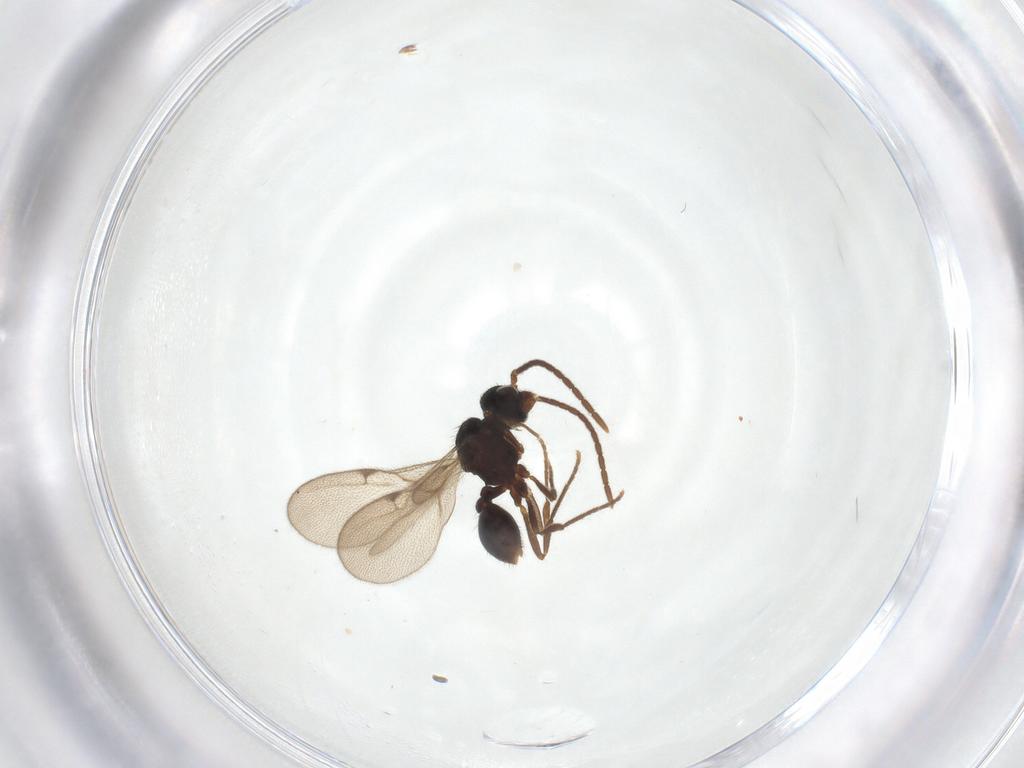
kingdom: Animalia
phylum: Arthropoda
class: Insecta
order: Hymenoptera
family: Formicidae
